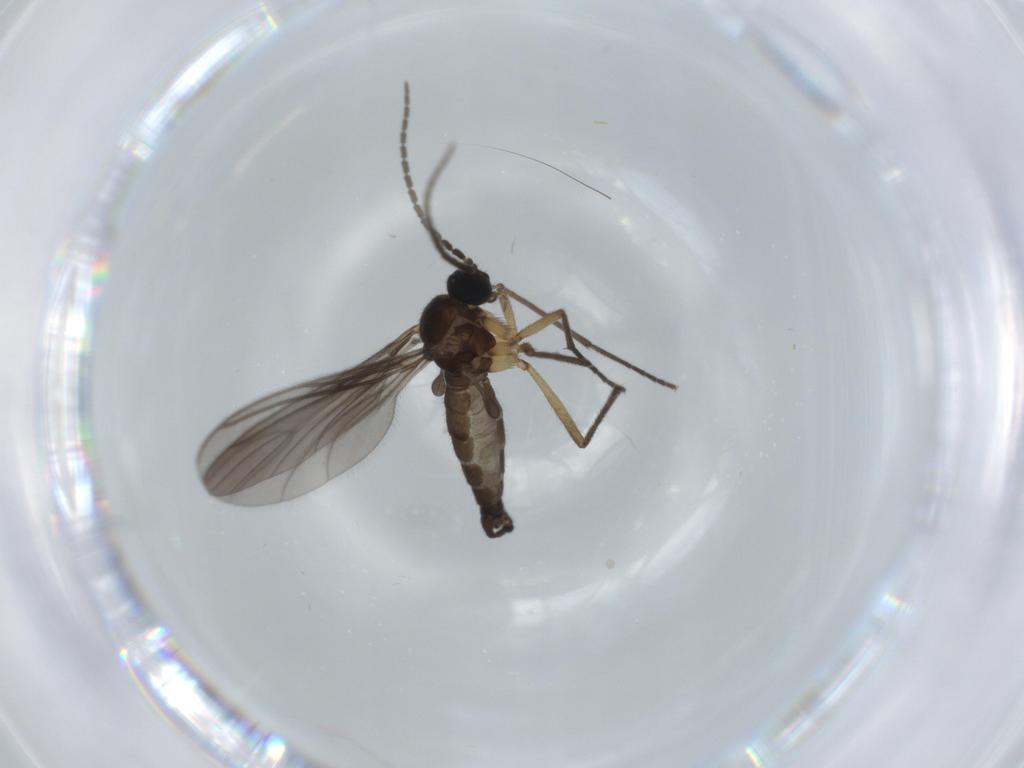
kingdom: Animalia
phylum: Arthropoda
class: Insecta
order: Diptera
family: Sciaridae
